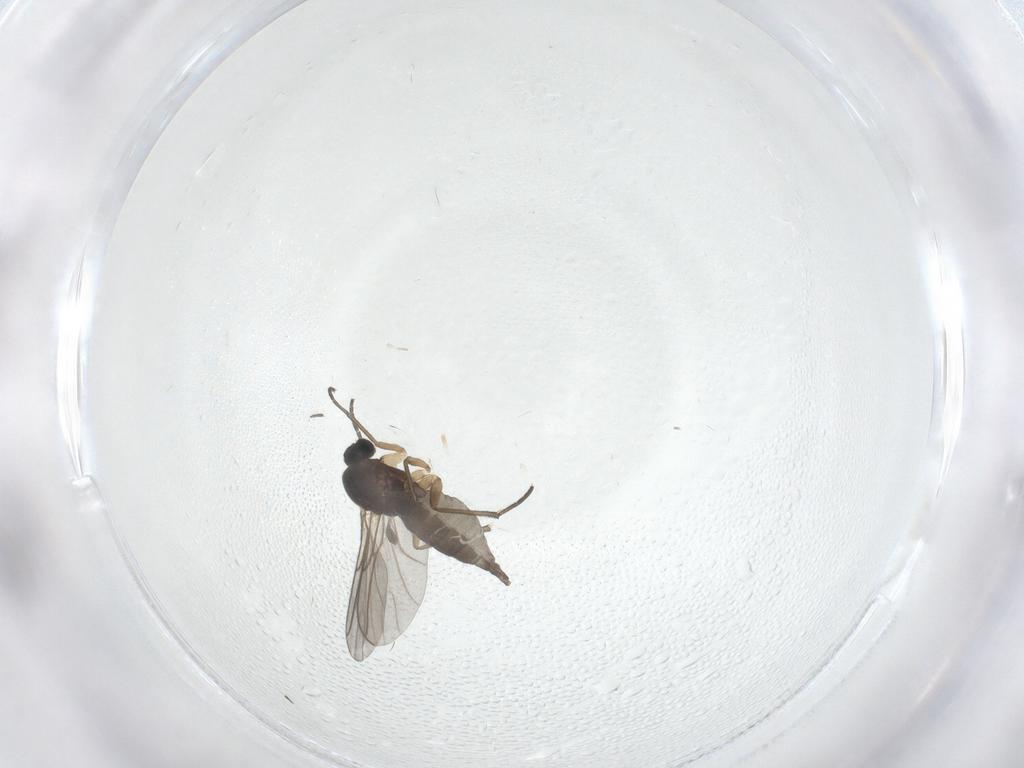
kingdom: Animalia
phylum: Arthropoda
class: Insecta
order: Diptera
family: Sciaridae
